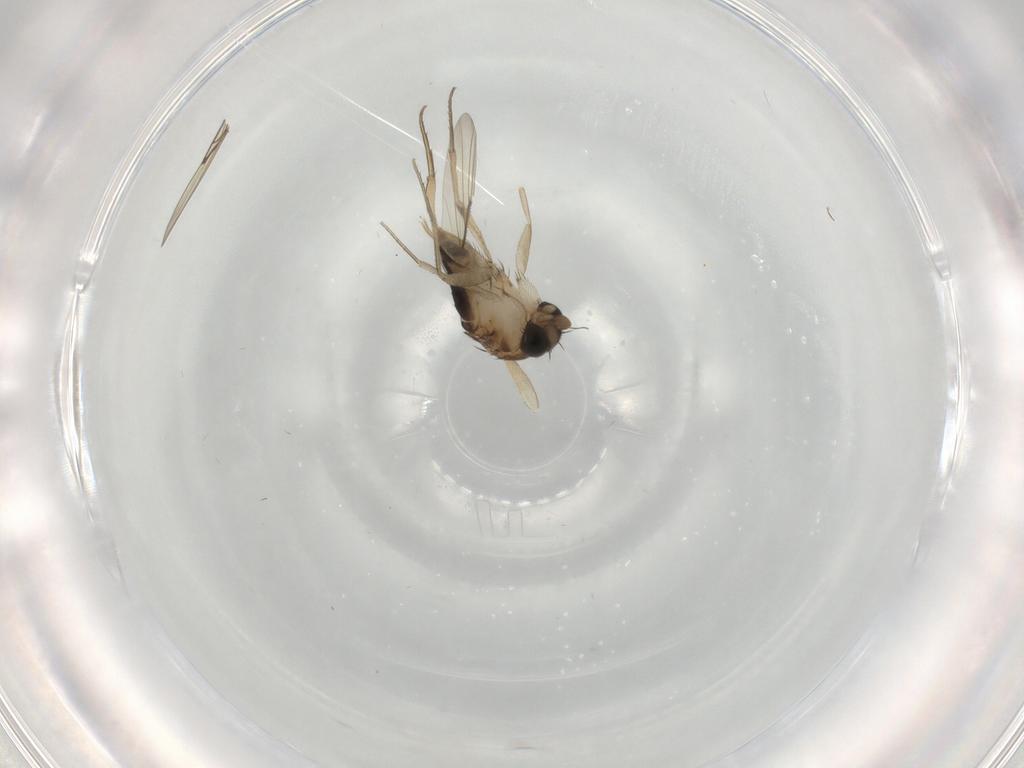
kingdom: Animalia
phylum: Arthropoda
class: Insecta
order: Diptera
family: Phoridae
